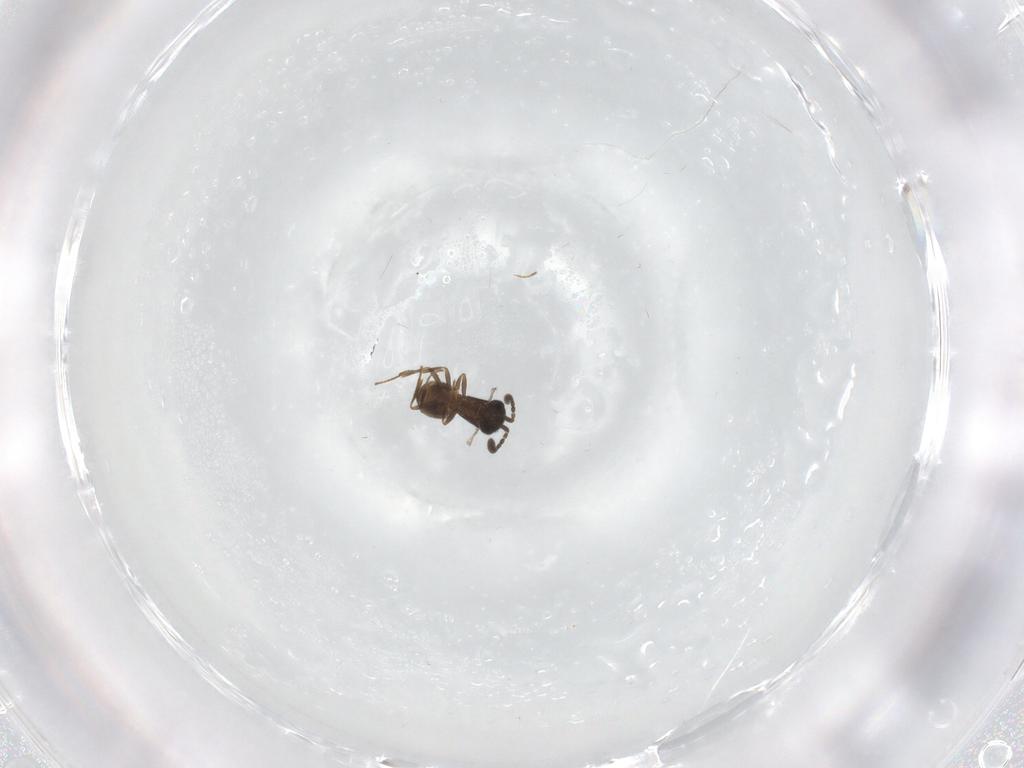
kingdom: Animalia
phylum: Arthropoda
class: Insecta
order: Hymenoptera
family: Scelionidae
